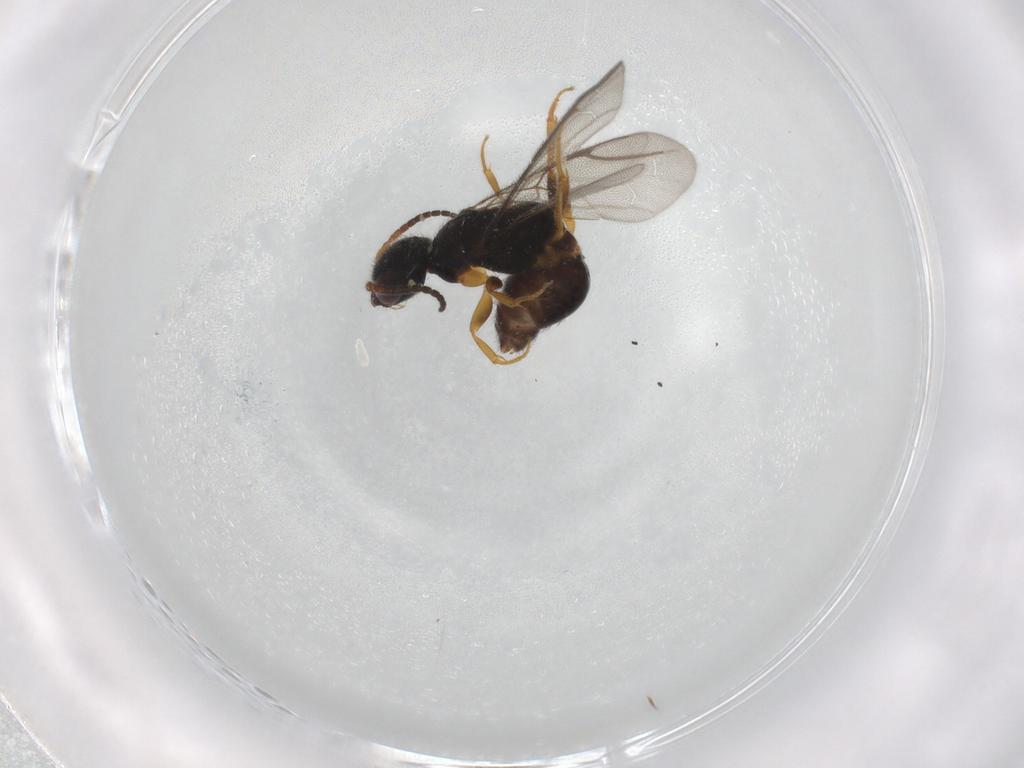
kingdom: Animalia
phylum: Arthropoda
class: Insecta
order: Hymenoptera
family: Bethylidae
